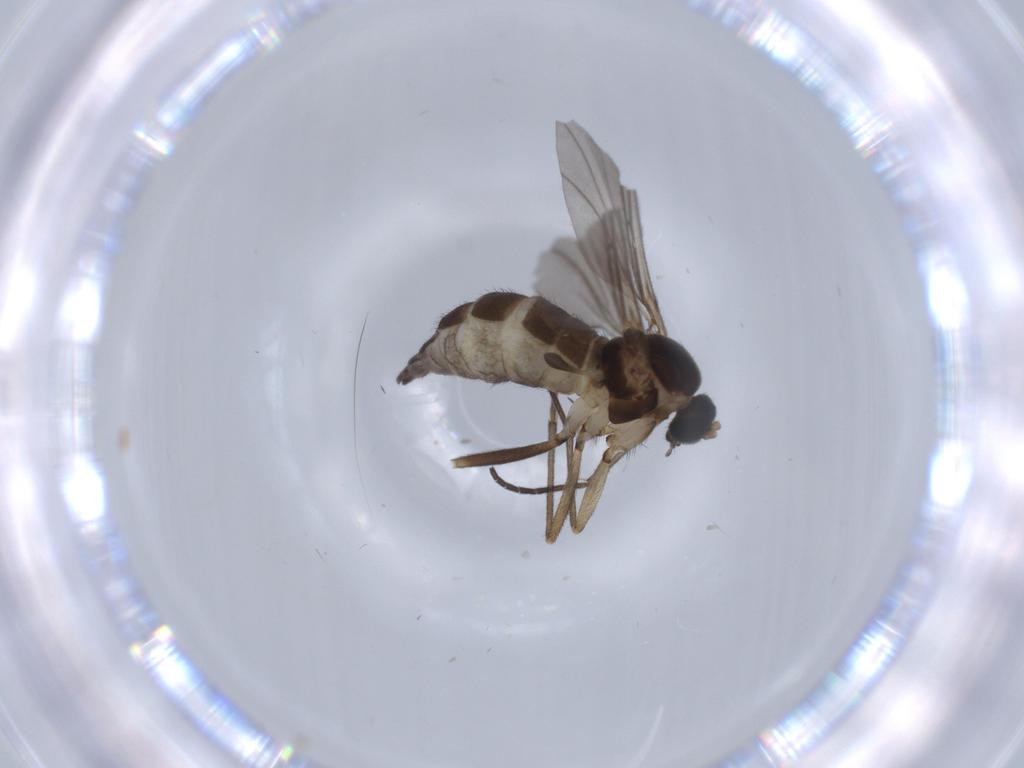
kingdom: Animalia
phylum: Arthropoda
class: Insecta
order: Diptera
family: Sciaridae
